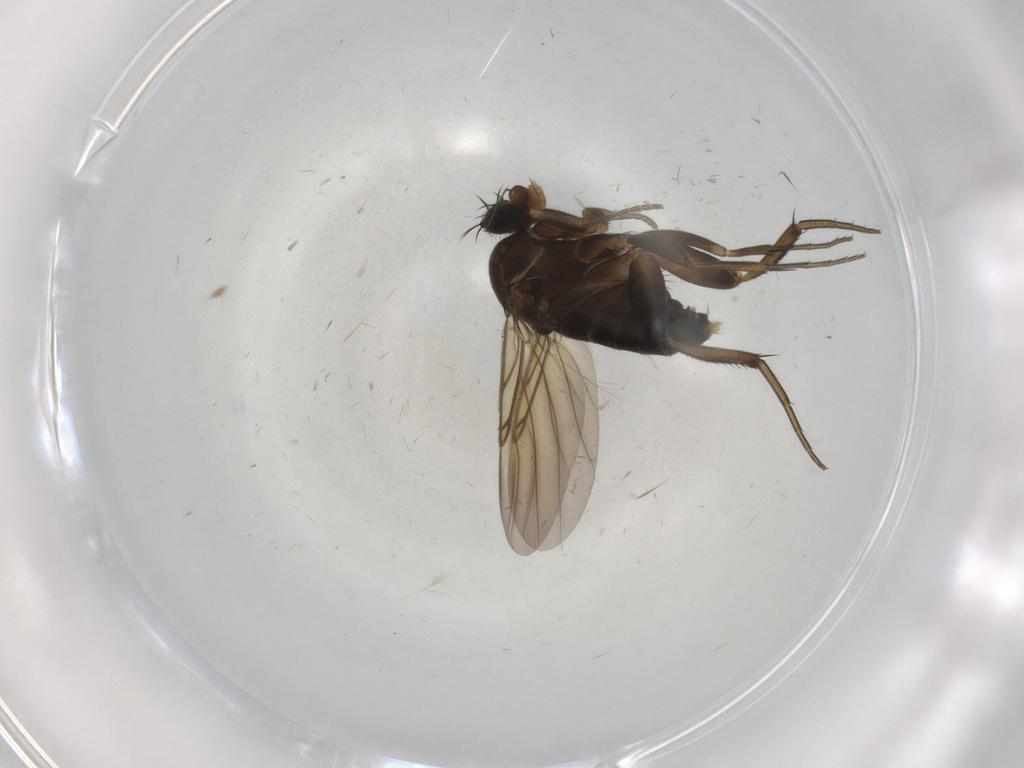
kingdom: Animalia
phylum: Arthropoda
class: Insecta
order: Diptera
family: Phoridae
